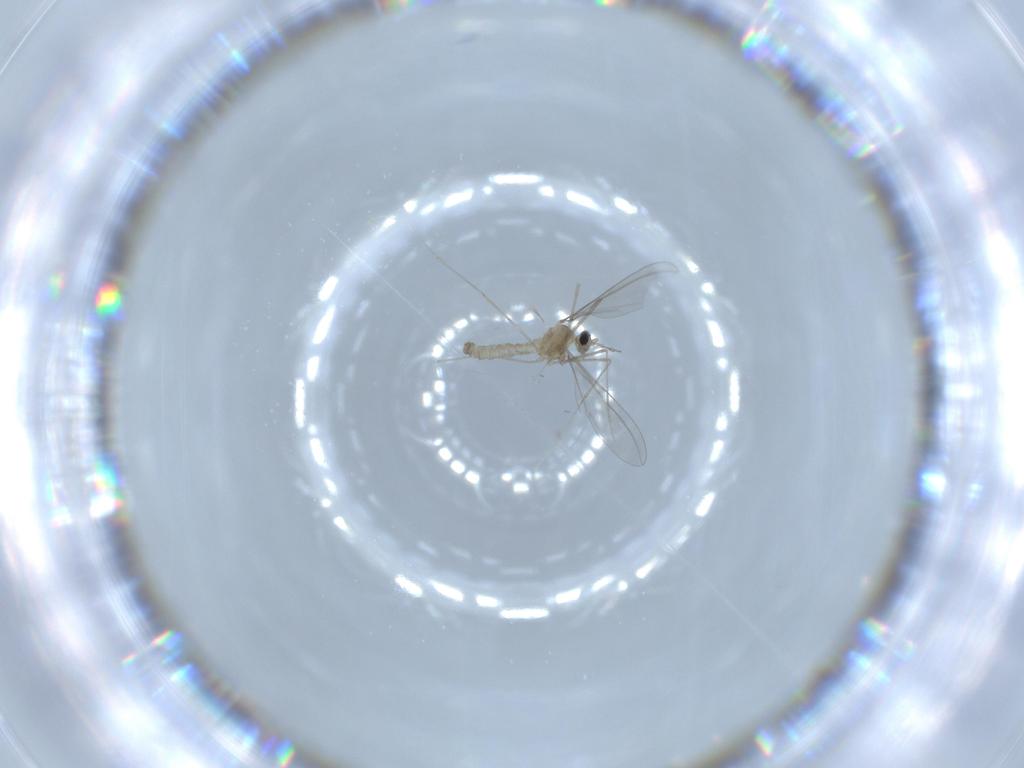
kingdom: Animalia
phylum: Arthropoda
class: Insecta
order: Diptera
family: Cecidomyiidae
